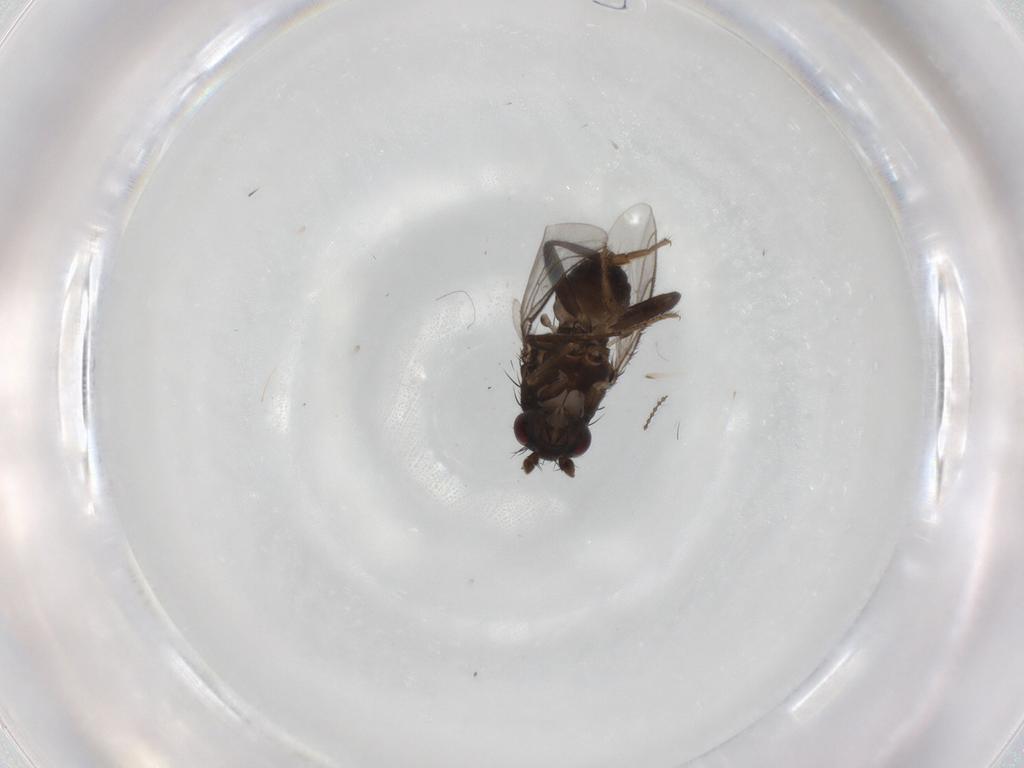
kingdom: Animalia
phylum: Arthropoda
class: Insecta
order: Diptera
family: Sphaeroceridae
